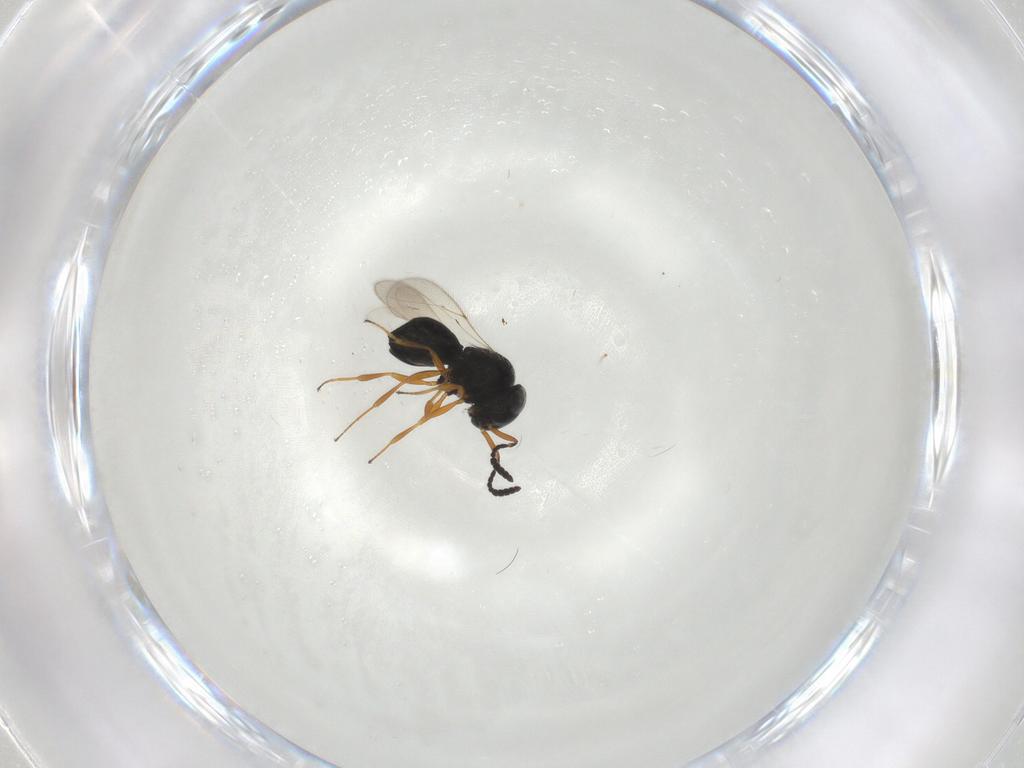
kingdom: Animalia
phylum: Arthropoda
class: Insecta
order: Hymenoptera
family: Scelionidae
